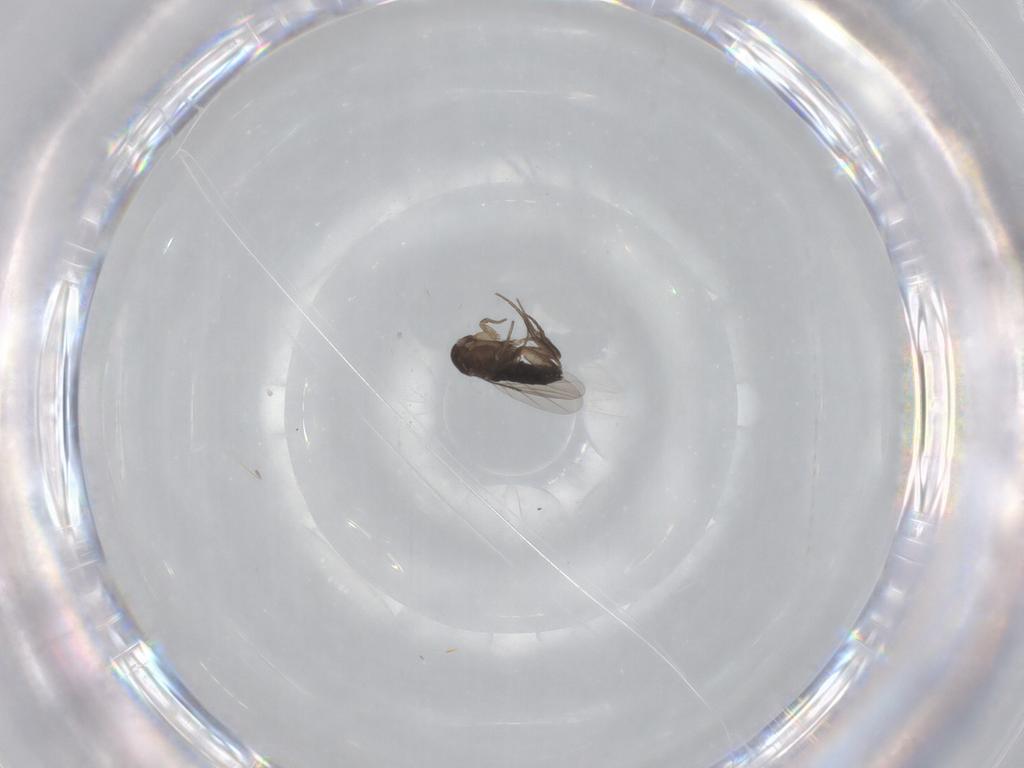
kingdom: Animalia
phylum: Arthropoda
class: Insecta
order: Diptera
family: Phoridae
